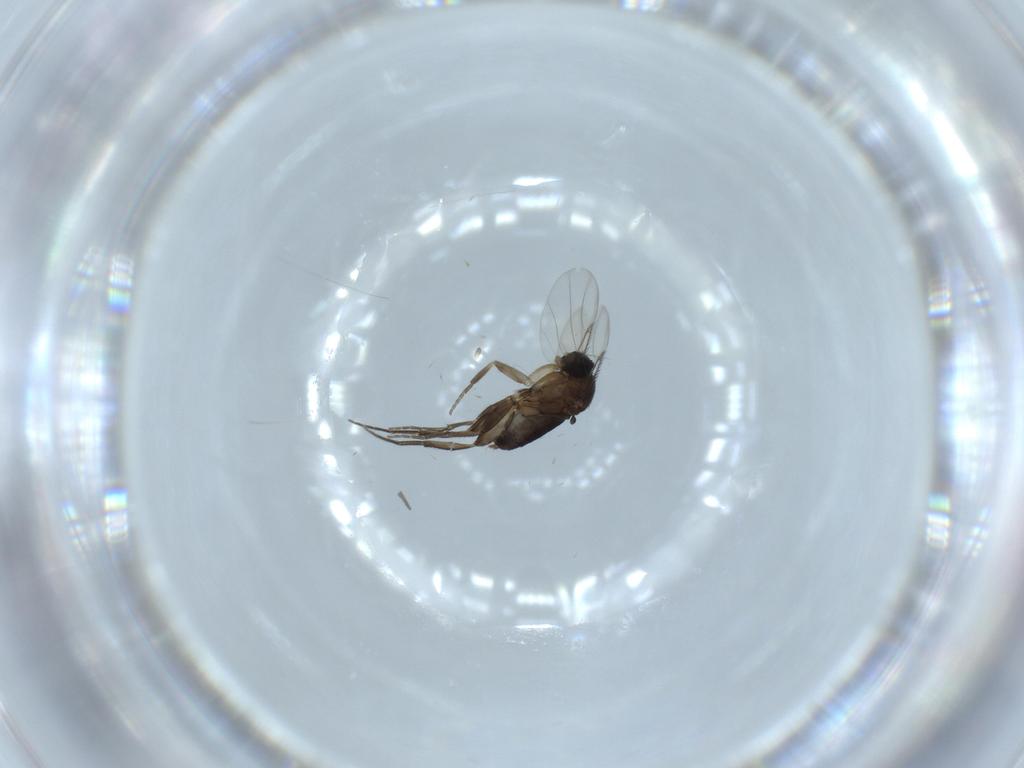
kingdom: Animalia
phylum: Arthropoda
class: Insecta
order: Diptera
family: Phoridae
